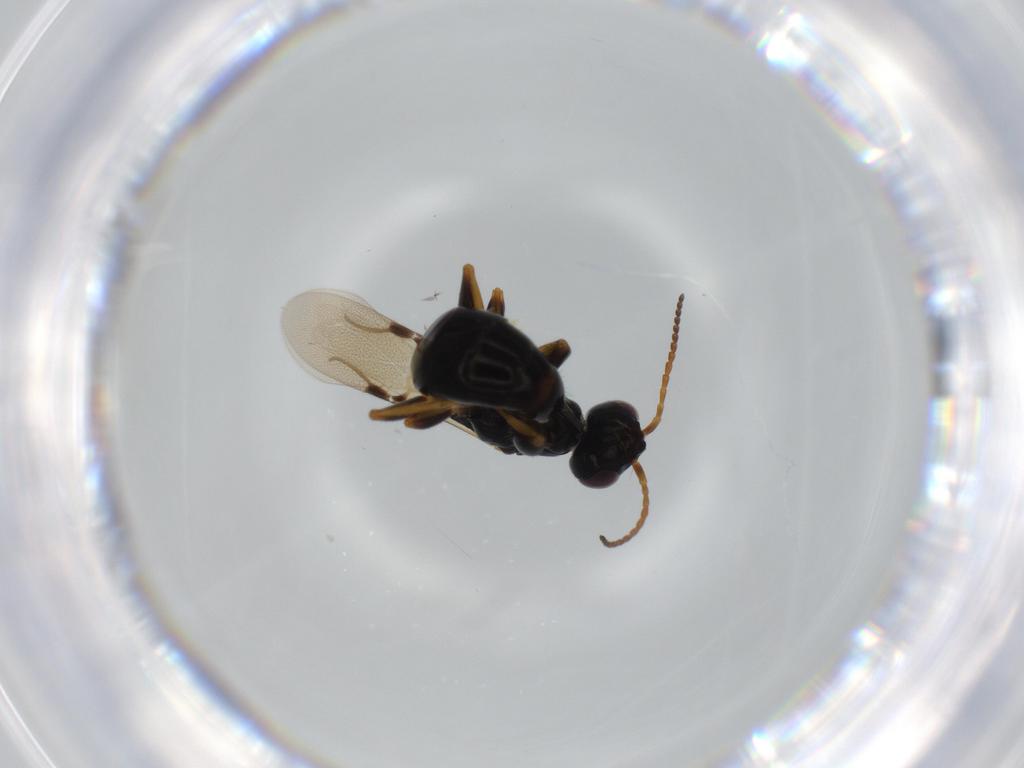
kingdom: Animalia
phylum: Arthropoda
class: Insecta
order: Hymenoptera
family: Bethylidae
